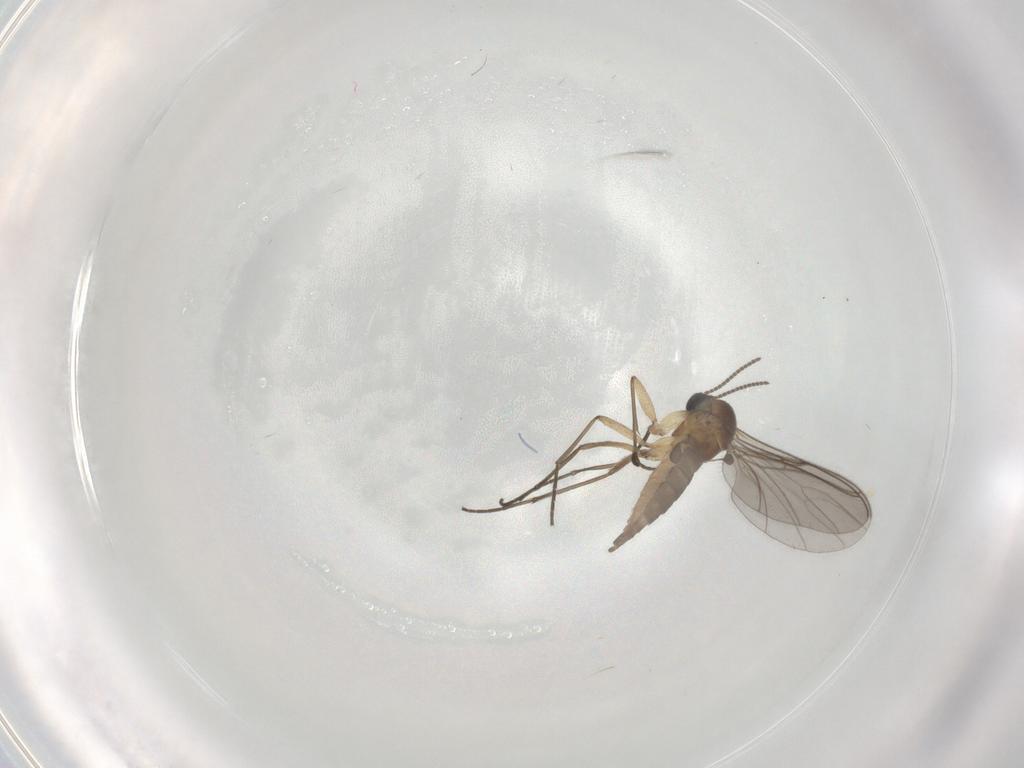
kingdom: Animalia
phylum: Arthropoda
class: Insecta
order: Diptera
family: Sciaridae
